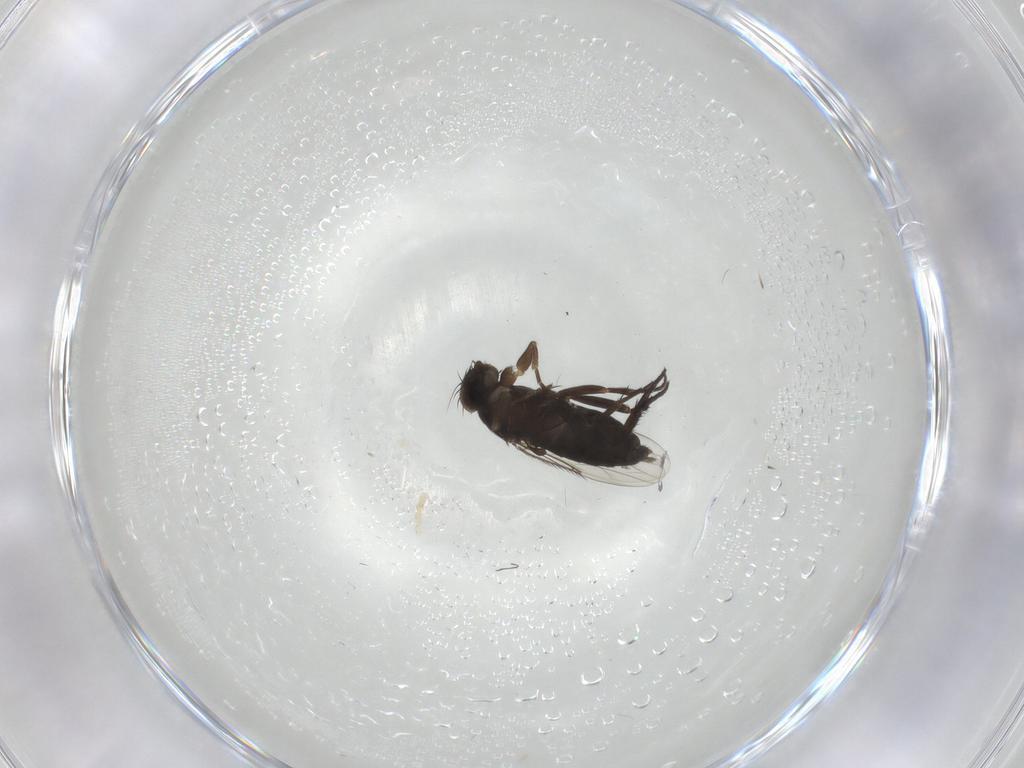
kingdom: Animalia
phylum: Arthropoda
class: Insecta
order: Diptera
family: Phoridae
